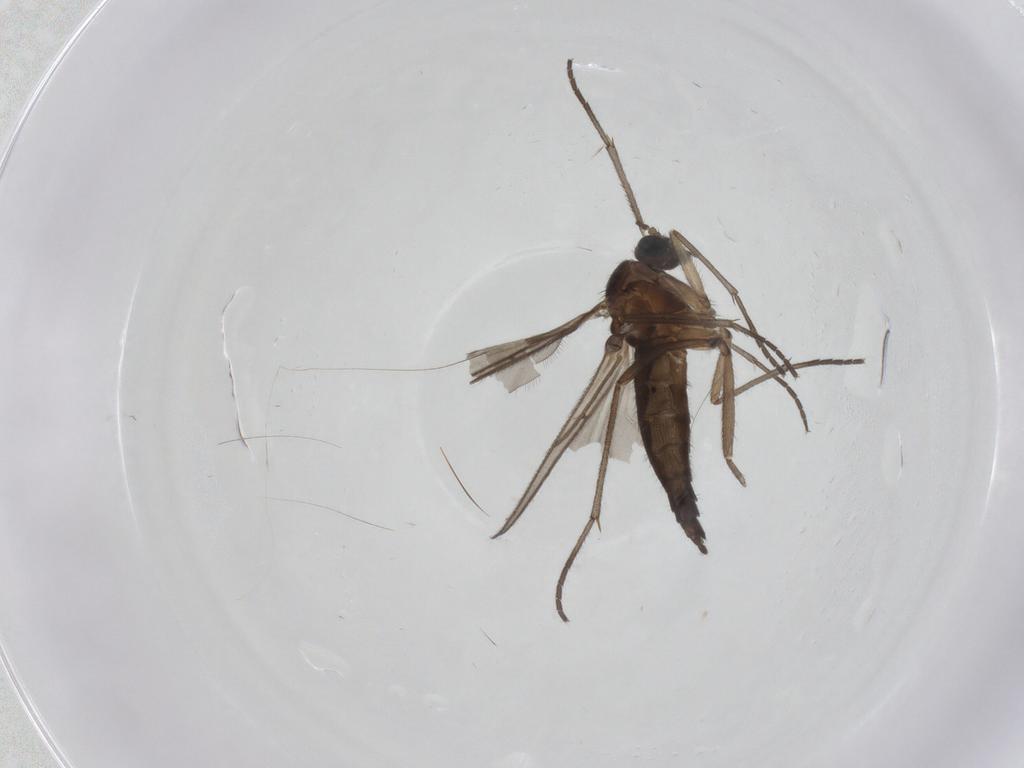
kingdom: Animalia
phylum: Arthropoda
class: Insecta
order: Diptera
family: Sciaridae
